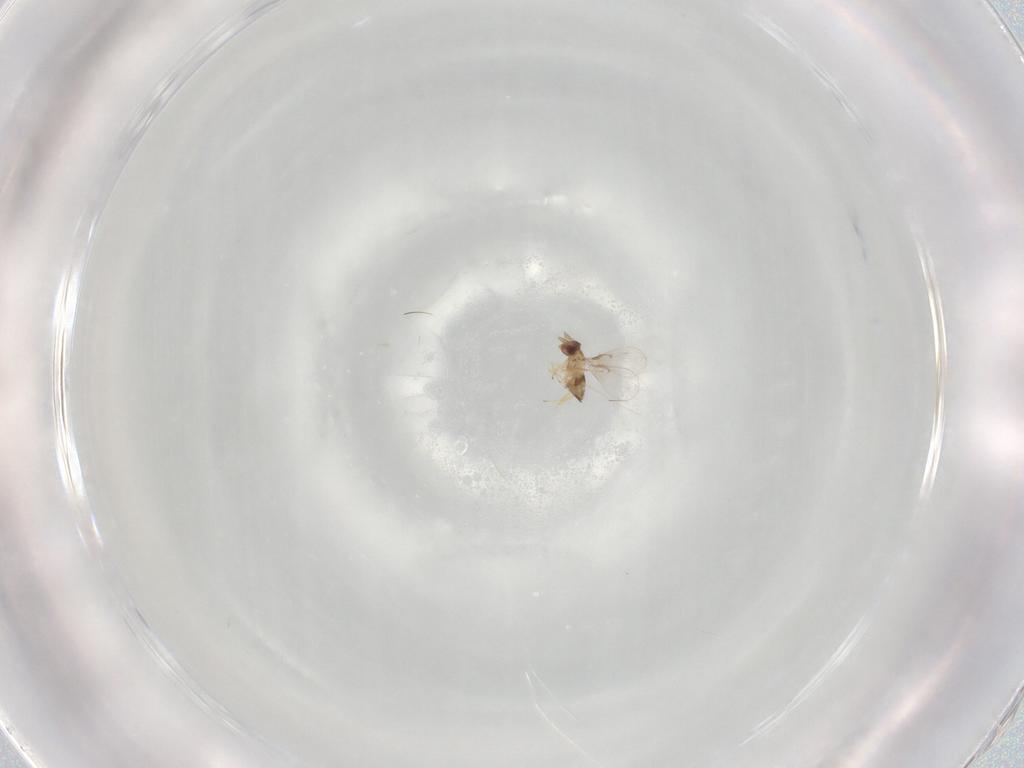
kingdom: Animalia
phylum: Arthropoda
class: Insecta
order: Hymenoptera
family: Trichogrammatidae
